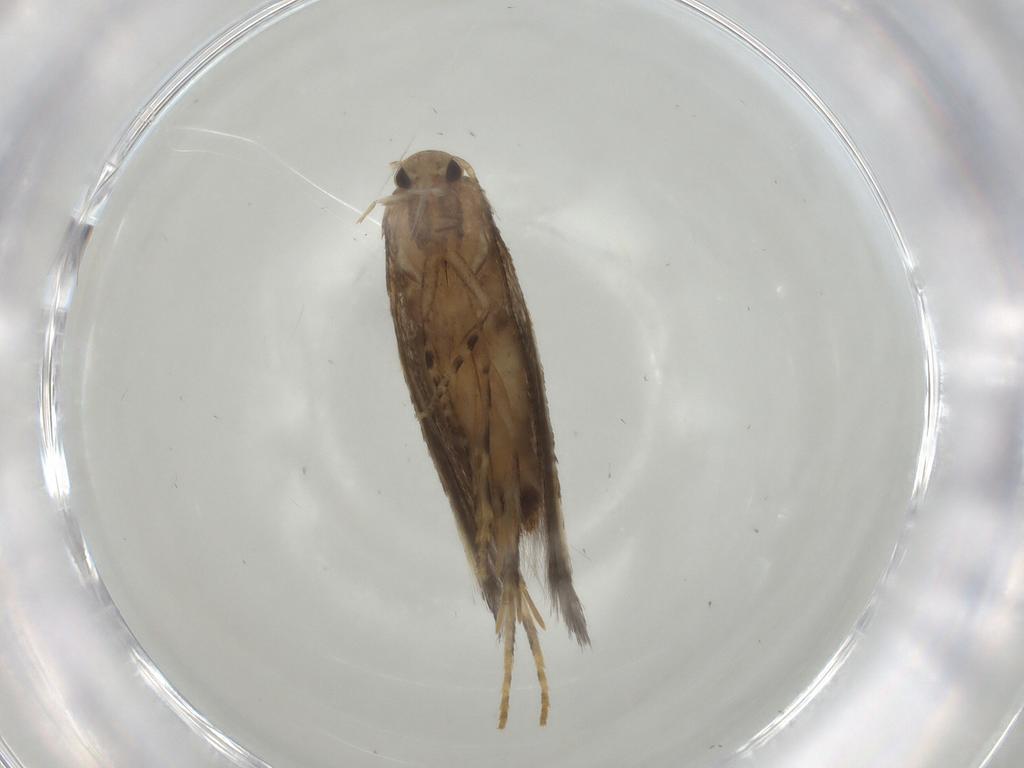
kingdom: Animalia
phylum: Arthropoda
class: Insecta
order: Lepidoptera
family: Elachistidae
